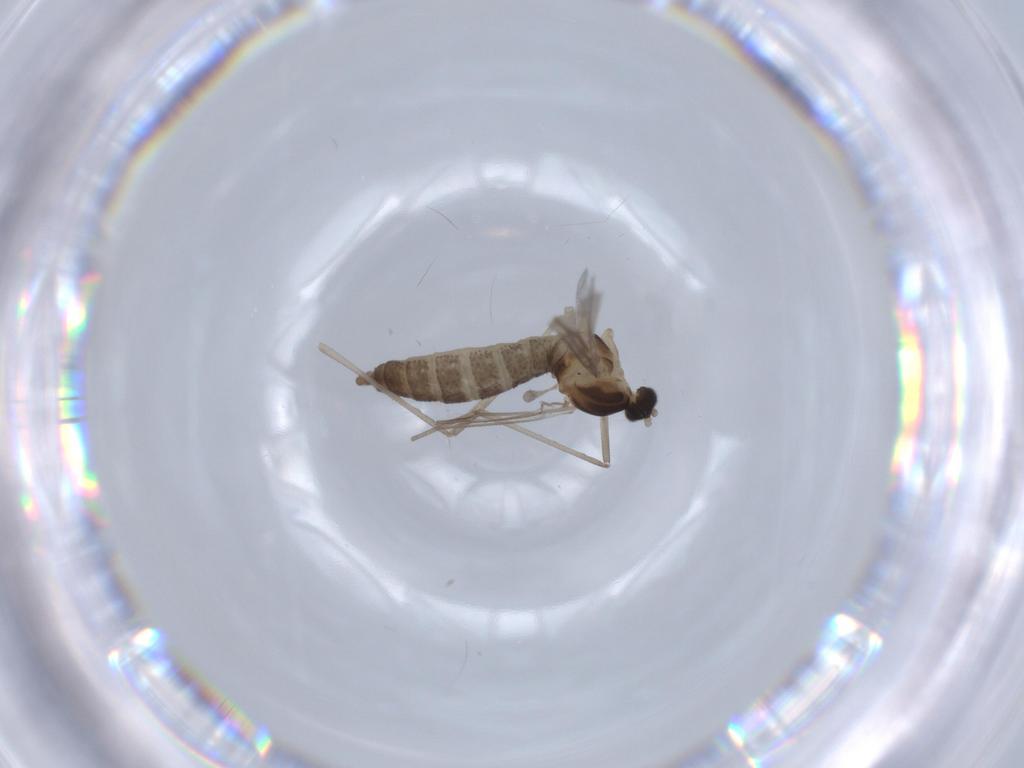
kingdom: Animalia
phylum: Arthropoda
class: Insecta
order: Diptera
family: Cecidomyiidae
